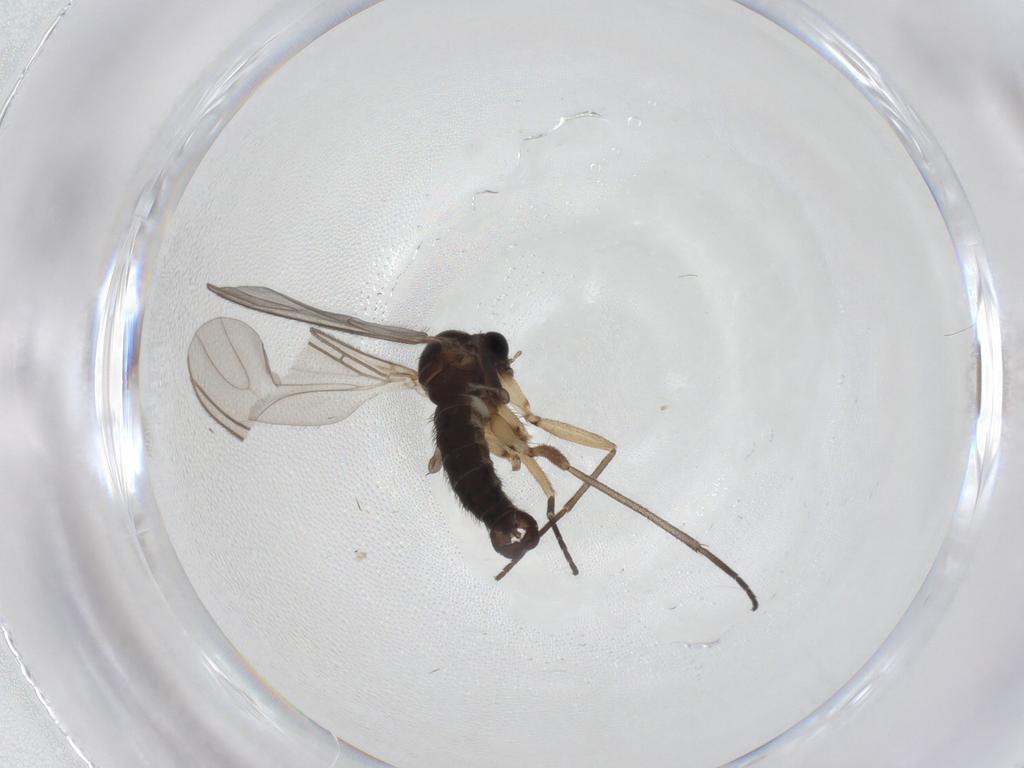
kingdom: Animalia
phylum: Arthropoda
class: Insecta
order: Diptera
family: Sciaridae
